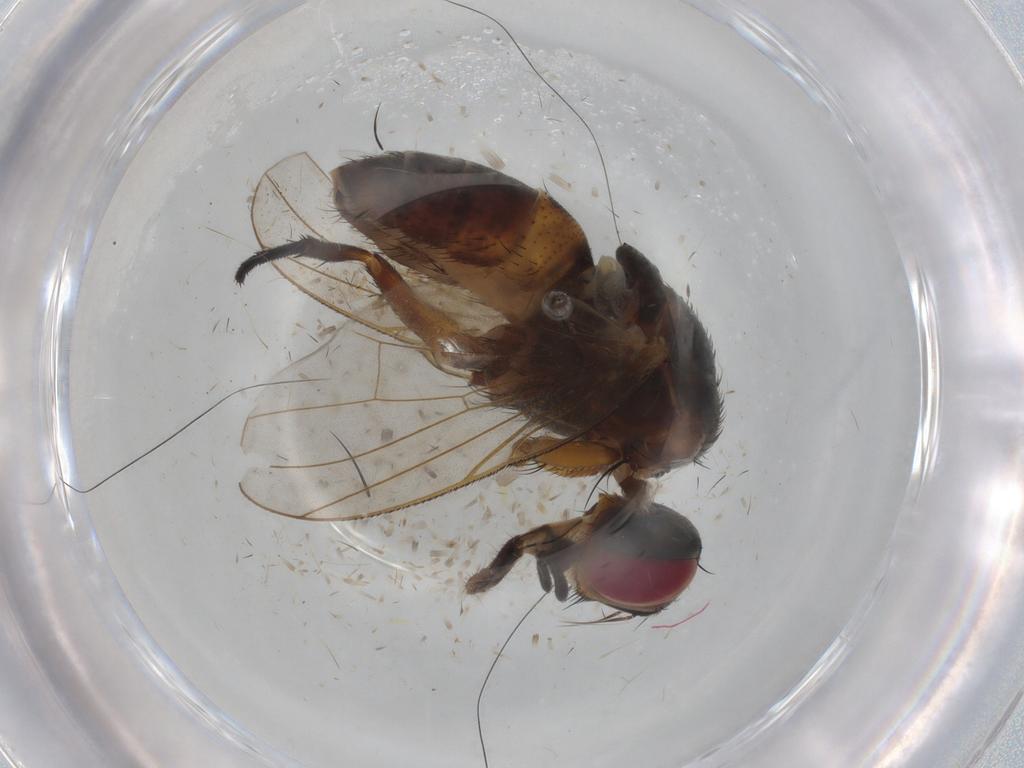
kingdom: Animalia
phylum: Arthropoda
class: Insecta
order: Diptera
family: Muscidae
